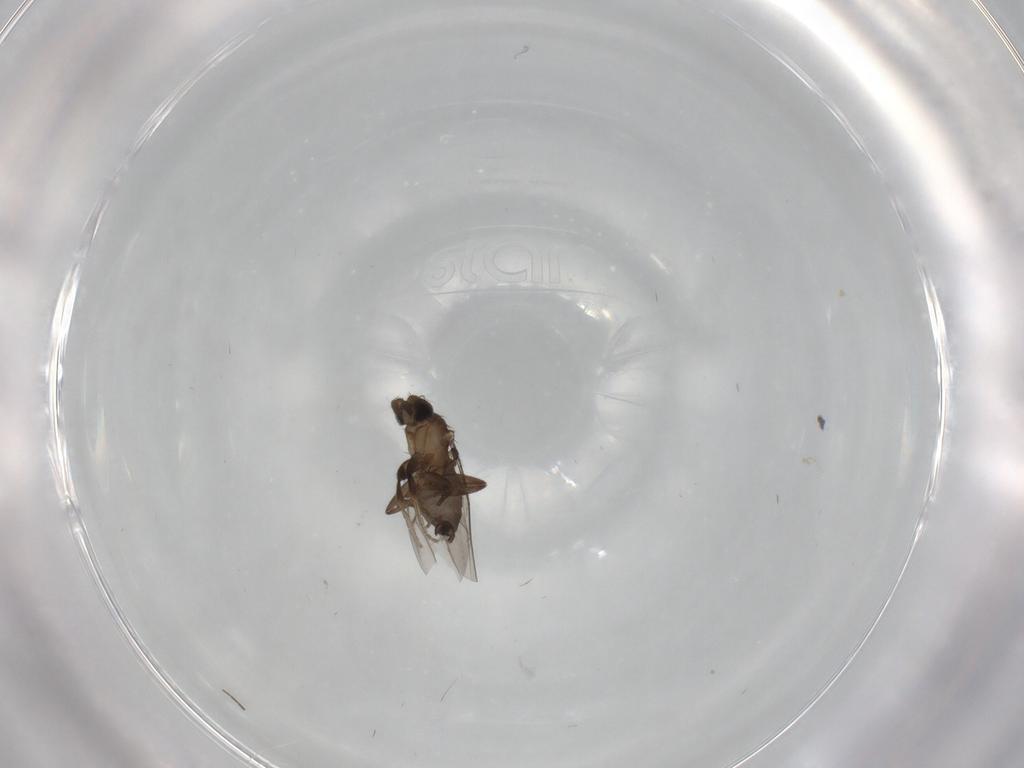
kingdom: Animalia
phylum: Arthropoda
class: Insecta
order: Diptera
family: Phoridae
